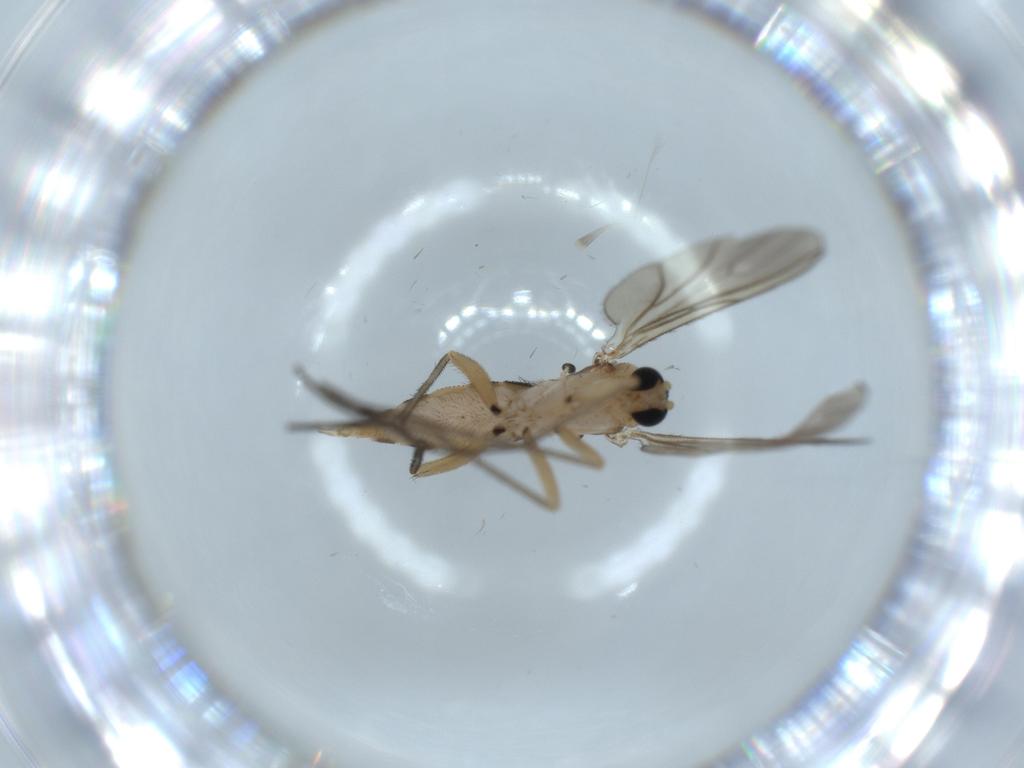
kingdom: Animalia
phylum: Arthropoda
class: Insecta
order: Diptera
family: Sciaridae
